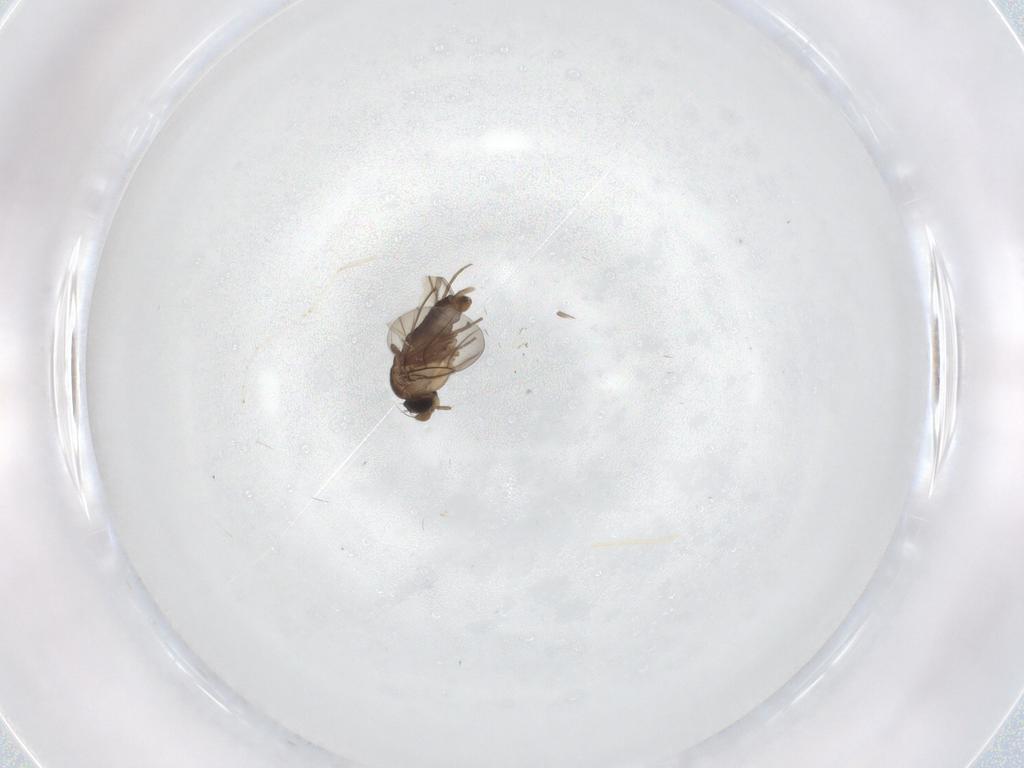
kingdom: Animalia
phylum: Arthropoda
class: Insecta
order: Diptera
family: Phoridae
